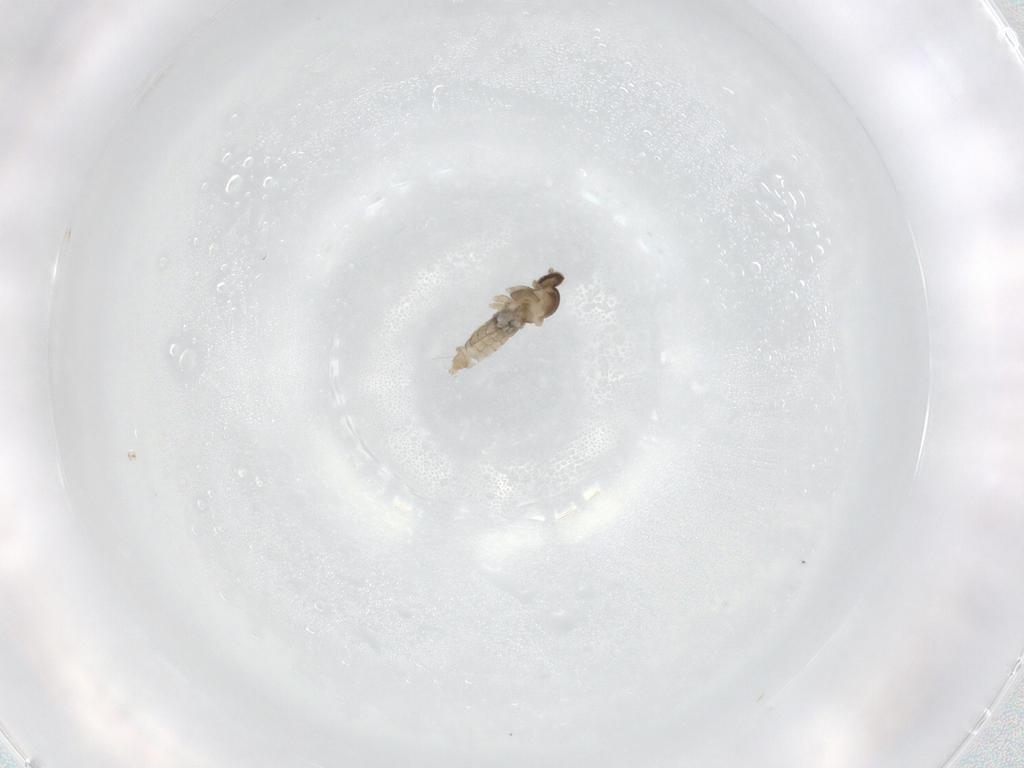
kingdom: Animalia
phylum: Arthropoda
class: Insecta
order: Diptera
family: Cecidomyiidae
